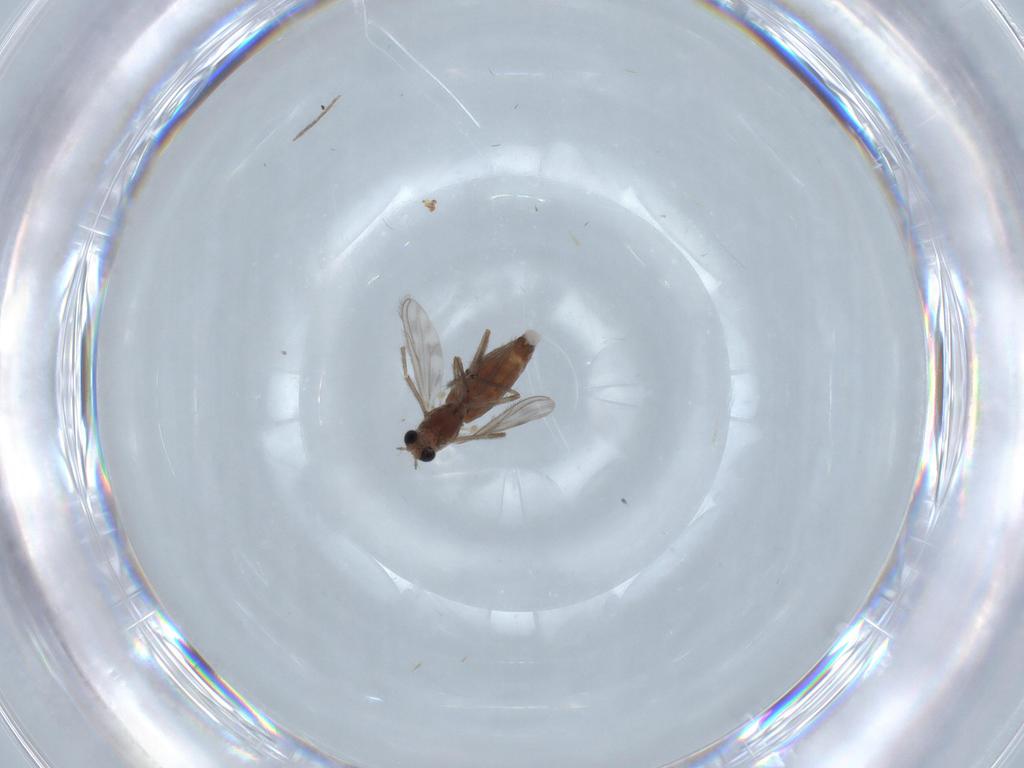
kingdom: Animalia
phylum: Arthropoda
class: Insecta
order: Diptera
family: Chironomidae
